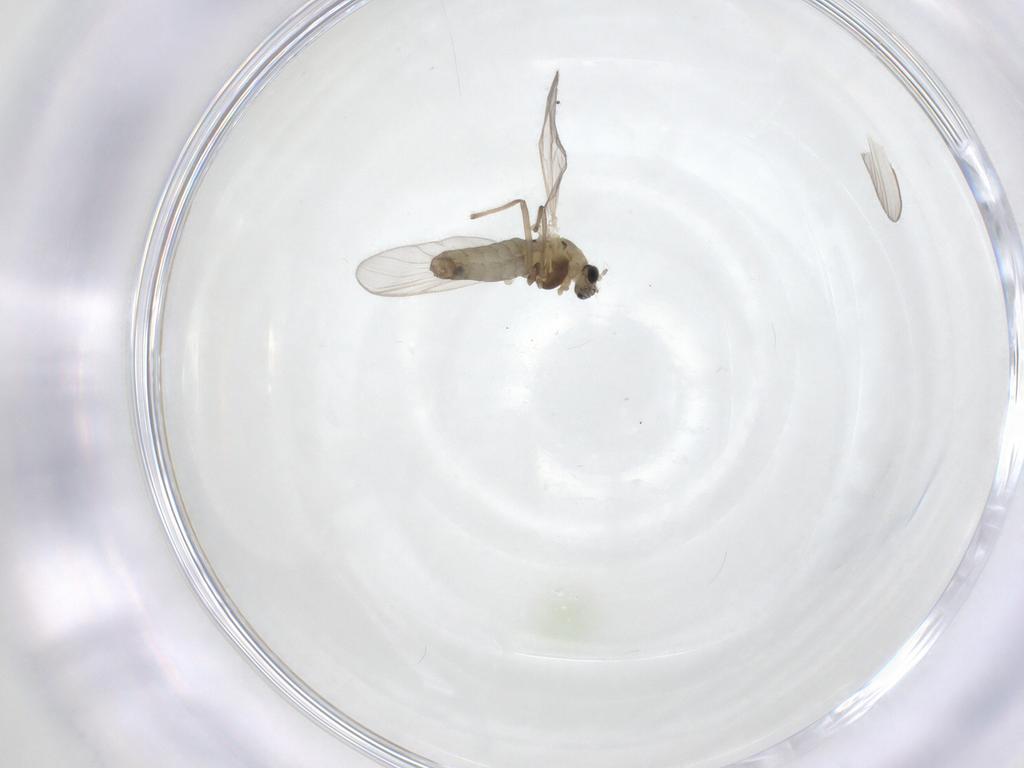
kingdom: Animalia
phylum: Arthropoda
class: Insecta
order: Diptera
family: Chironomidae
